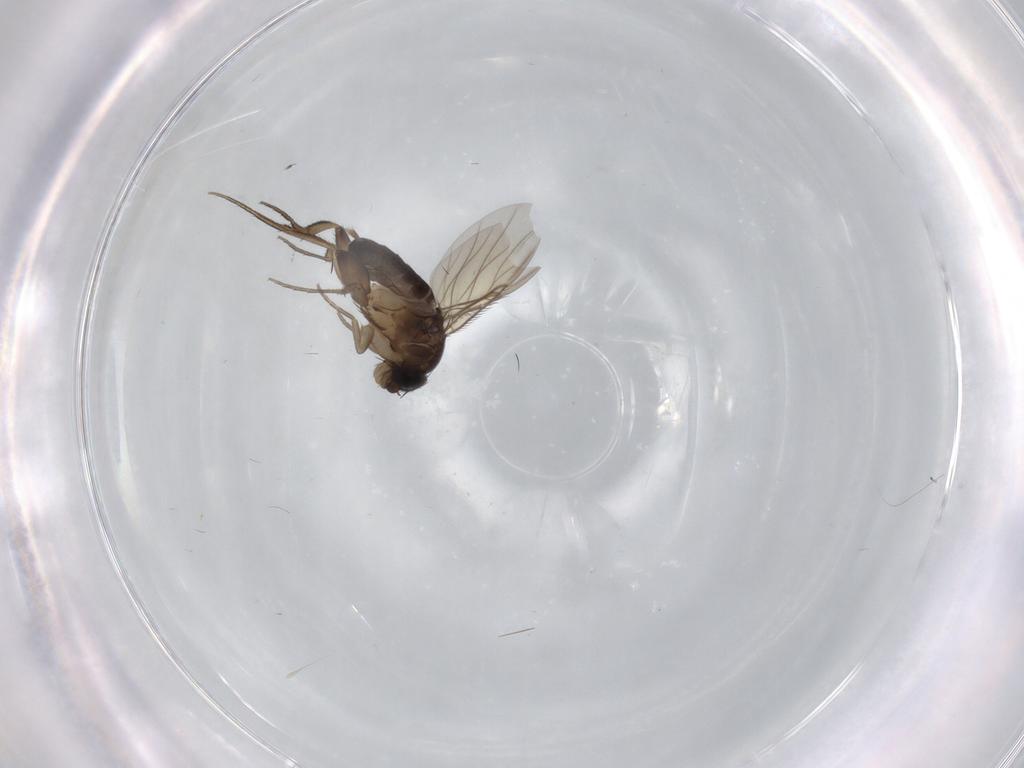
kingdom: Animalia
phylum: Arthropoda
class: Insecta
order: Diptera
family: Phoridae
